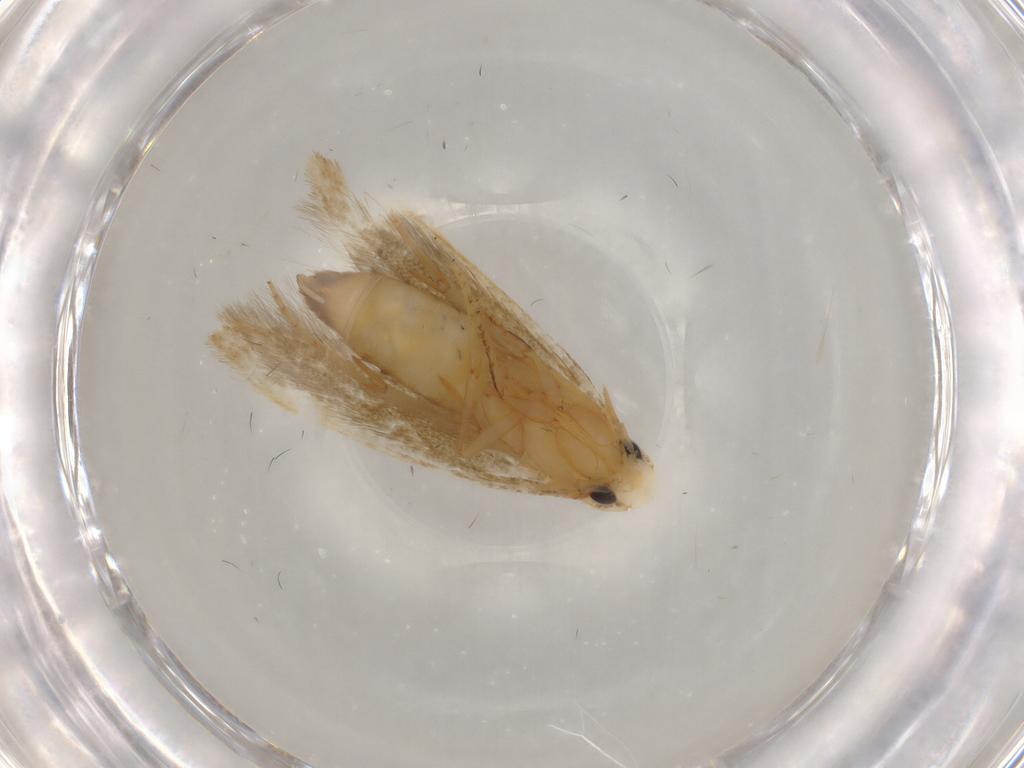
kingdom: Animalia
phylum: Arthropoda
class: Insecta
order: Lepidoptera
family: Tineidae
